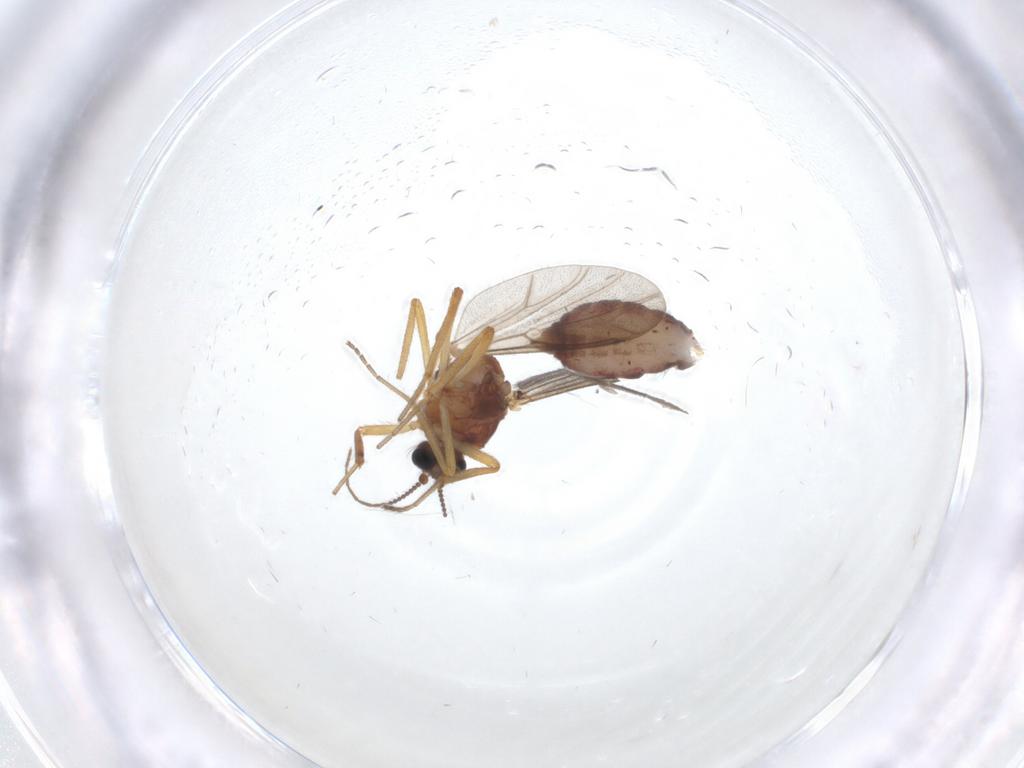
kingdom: Animalia
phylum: Arthropoda
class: Insecta
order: Diptera
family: Ceratopogonidae
